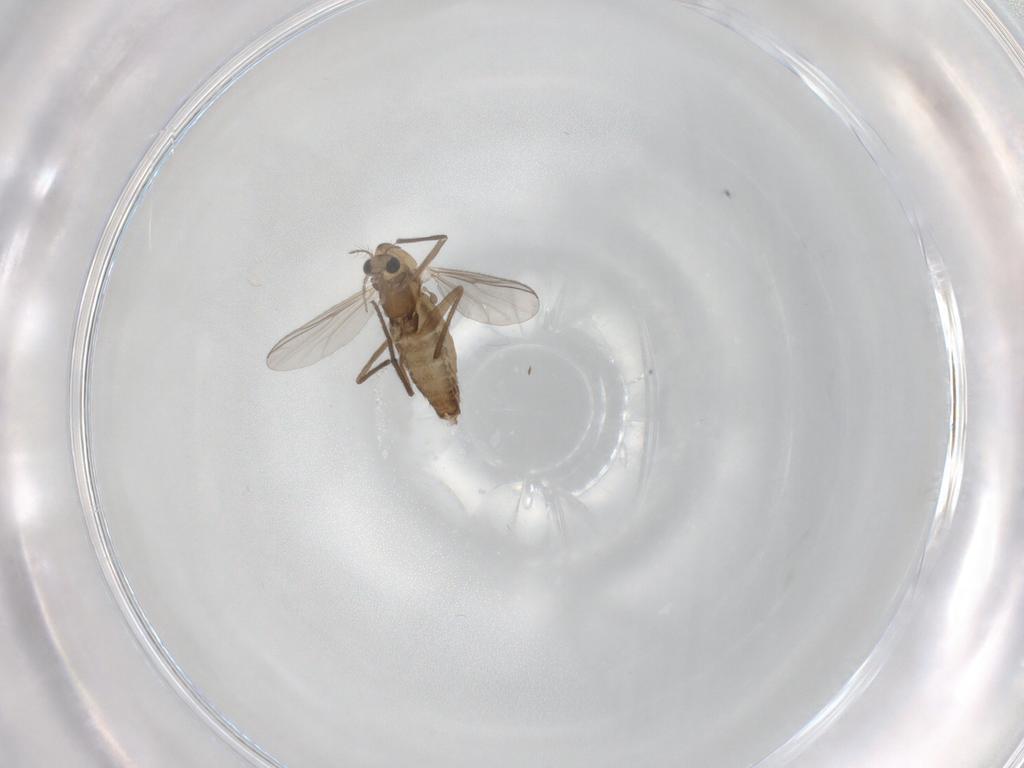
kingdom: Animalia
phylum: Arthropoda
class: Insecta
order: Diptera
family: Chironomidae
